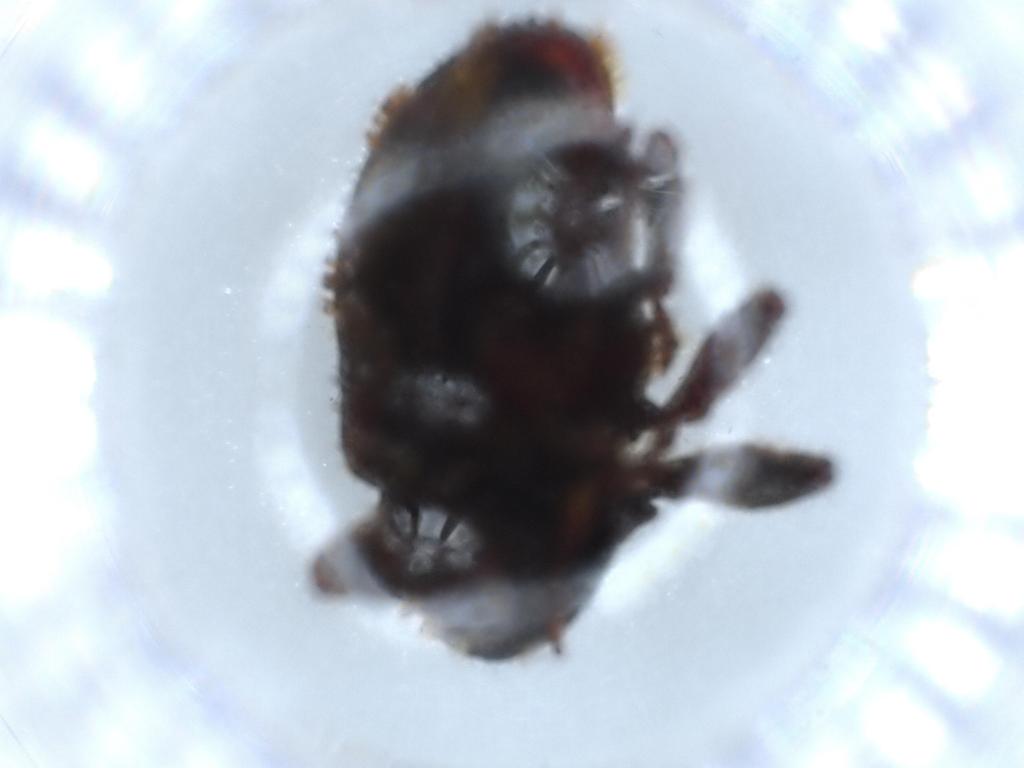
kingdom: Animalia
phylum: Arthropoda
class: Insecta
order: Coleoptera
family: Curculionidae
